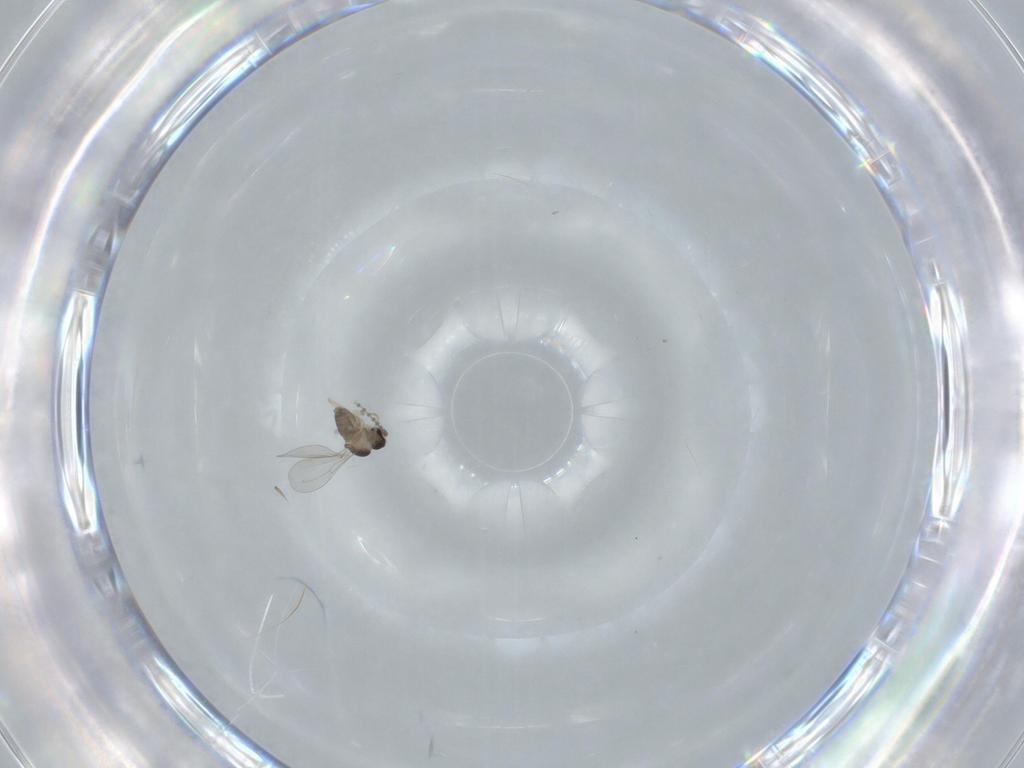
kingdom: Animalia
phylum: Arthropoda
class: Insecta
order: Diptera
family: Cecidomyiidae
